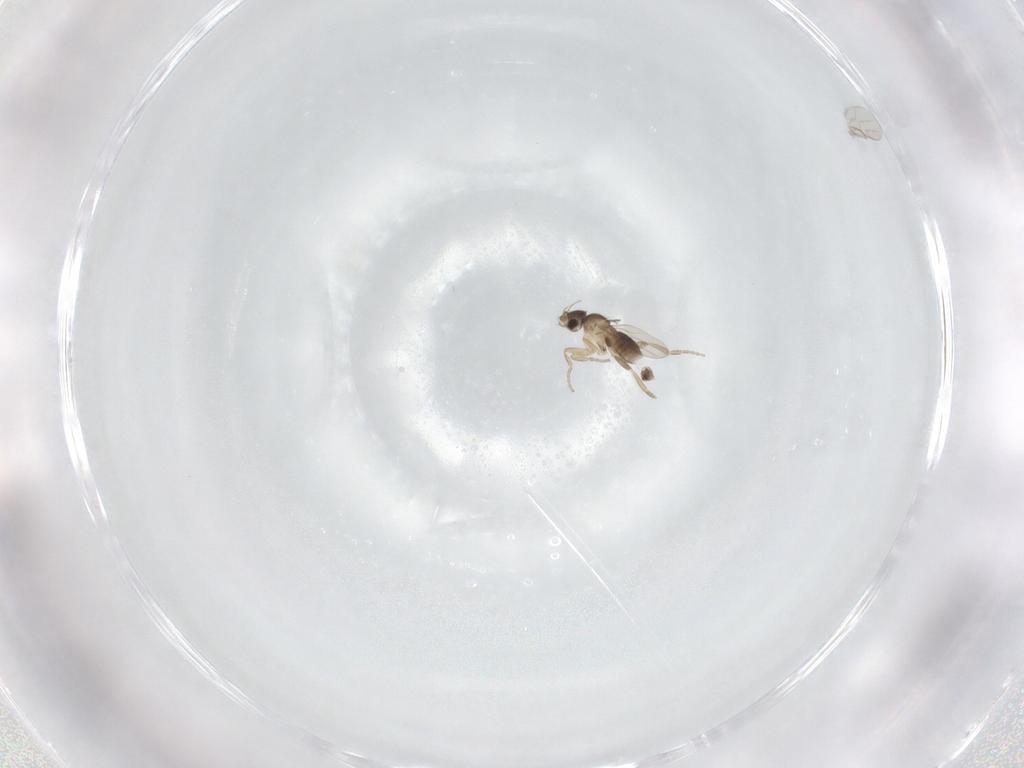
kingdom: Animalia
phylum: Arthropoda
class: Insecta
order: Diptera
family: Phoridae
